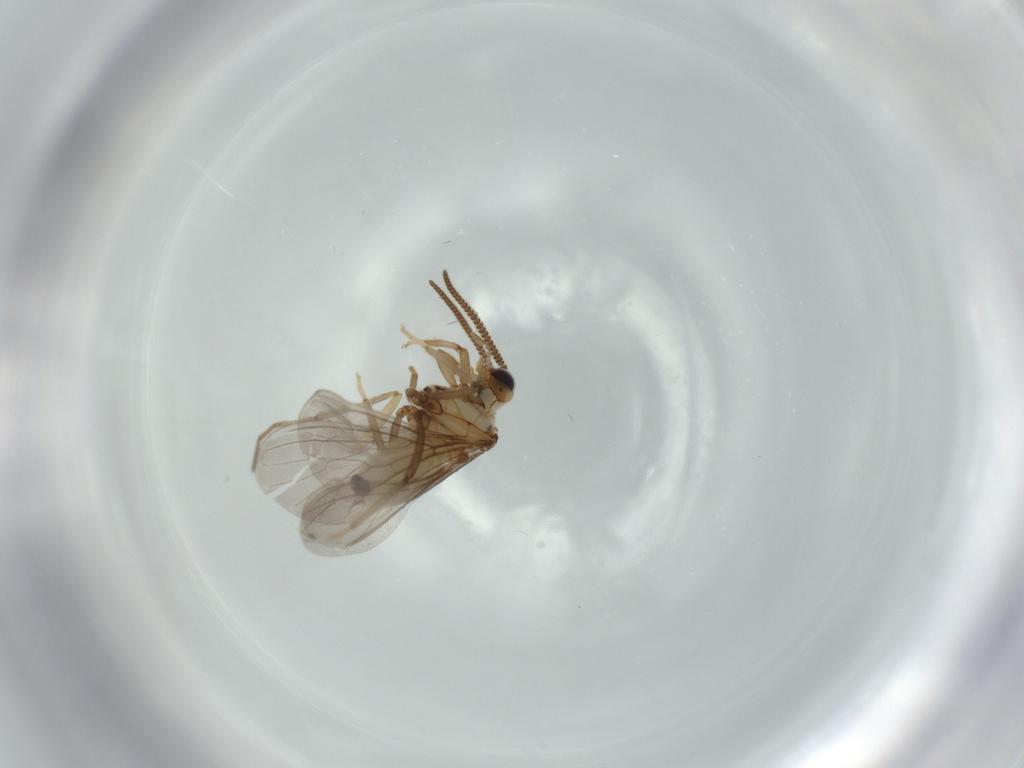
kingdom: Animalia
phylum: Arthropoda
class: Insecta
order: Neuroptera
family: Coniopterygidae
